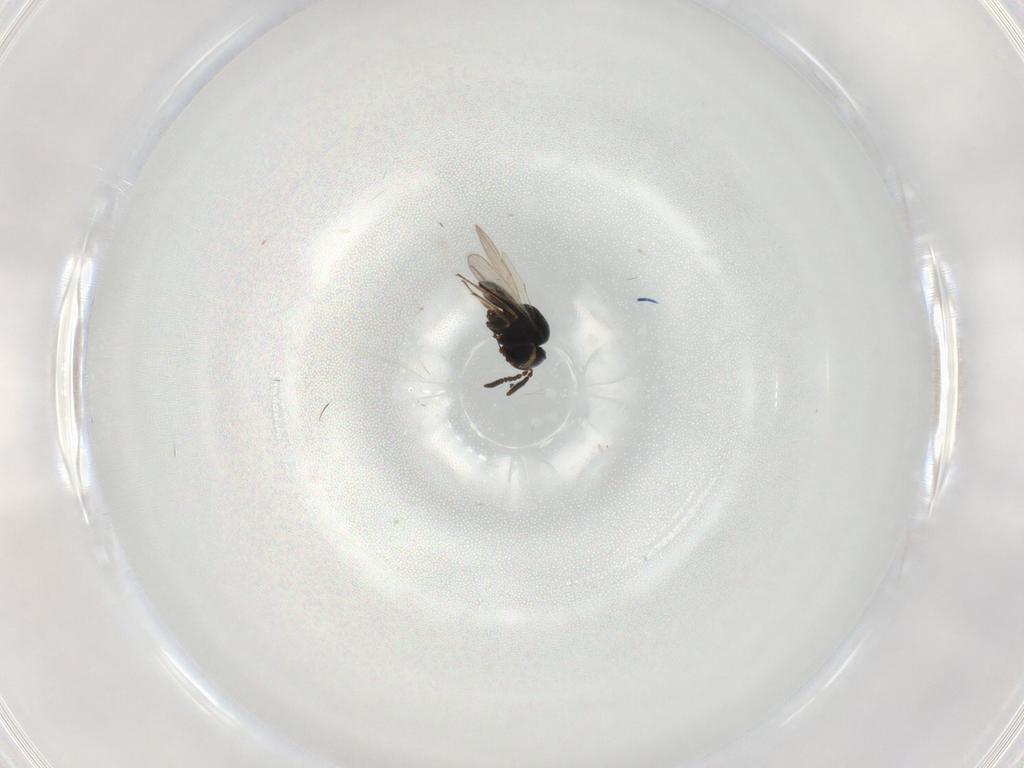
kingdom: Animalia
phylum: Arthropoda
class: Insecta
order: Hymenoptera
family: Scelionidae
